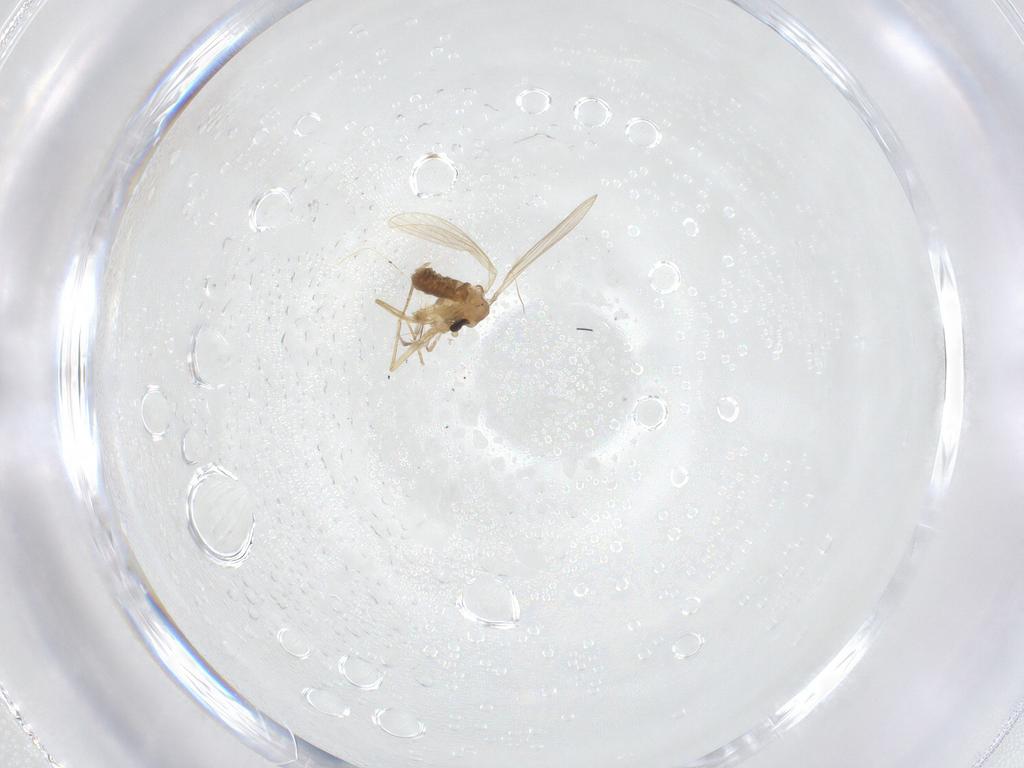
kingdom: Animalia
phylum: Arthropoda
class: Insecta
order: Diptera
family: Psychodidae
